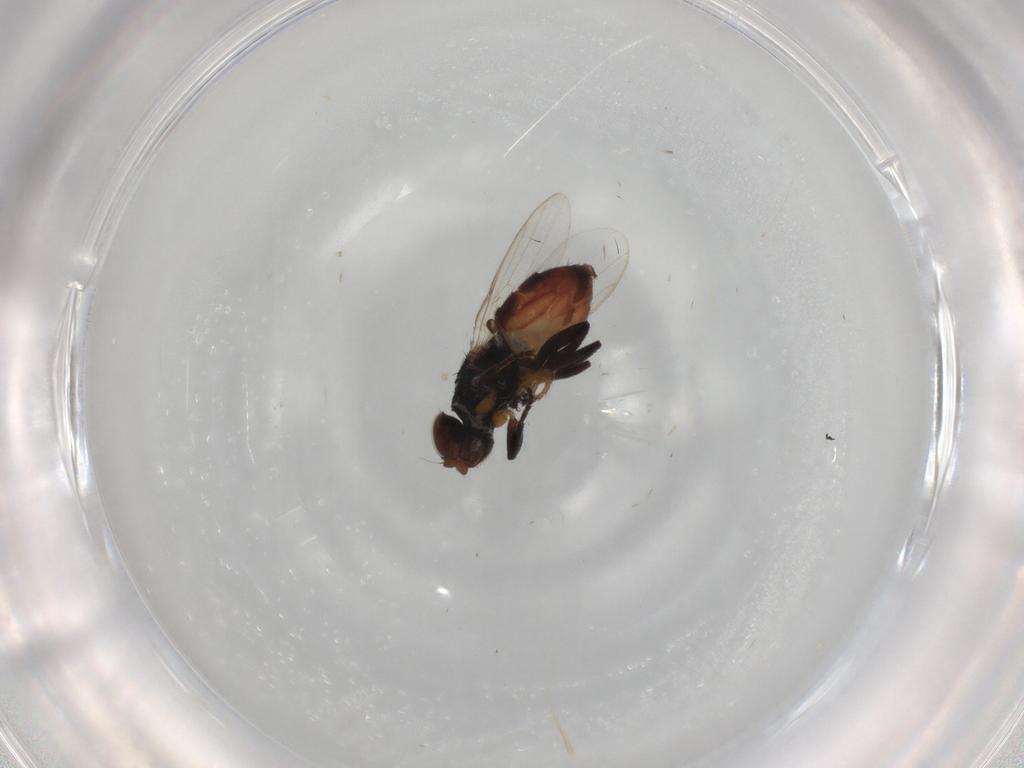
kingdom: Animalia
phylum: Arthropoda
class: Insecta
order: Diptera
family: Chloropidae
